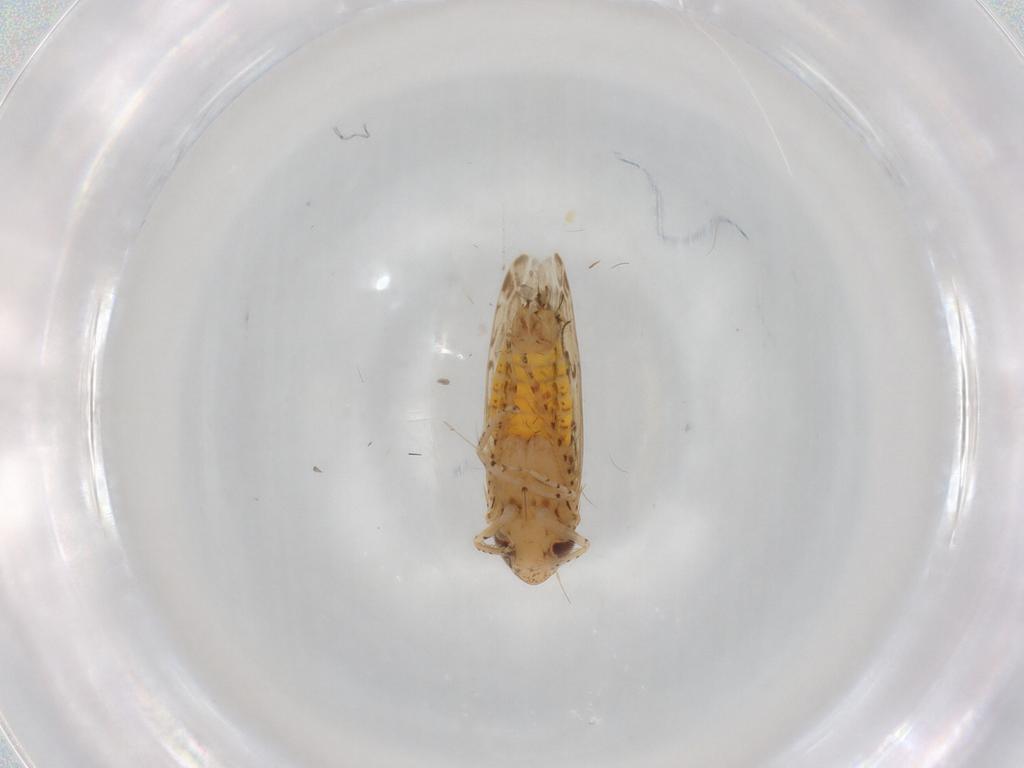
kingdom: Animalia
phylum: Arthropoda
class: Insecta
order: Hemiptera
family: Cicadellidae
